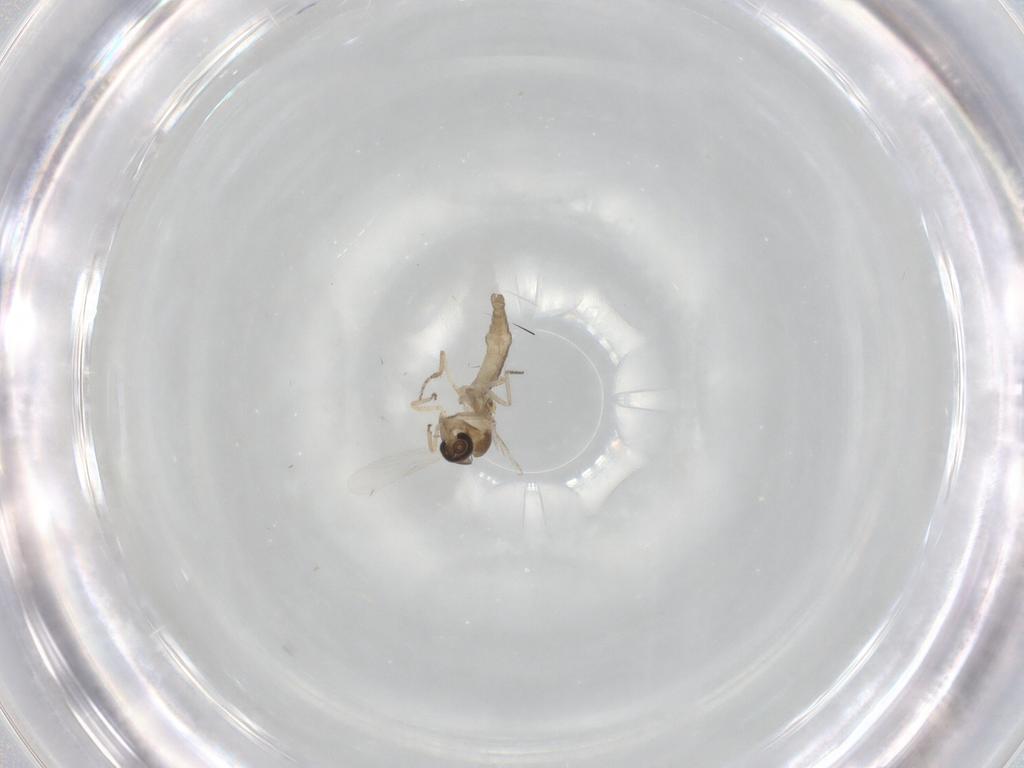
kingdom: Animalia
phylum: Arthropoda
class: Insecta
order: Diptera
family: Ceratopogonidae
